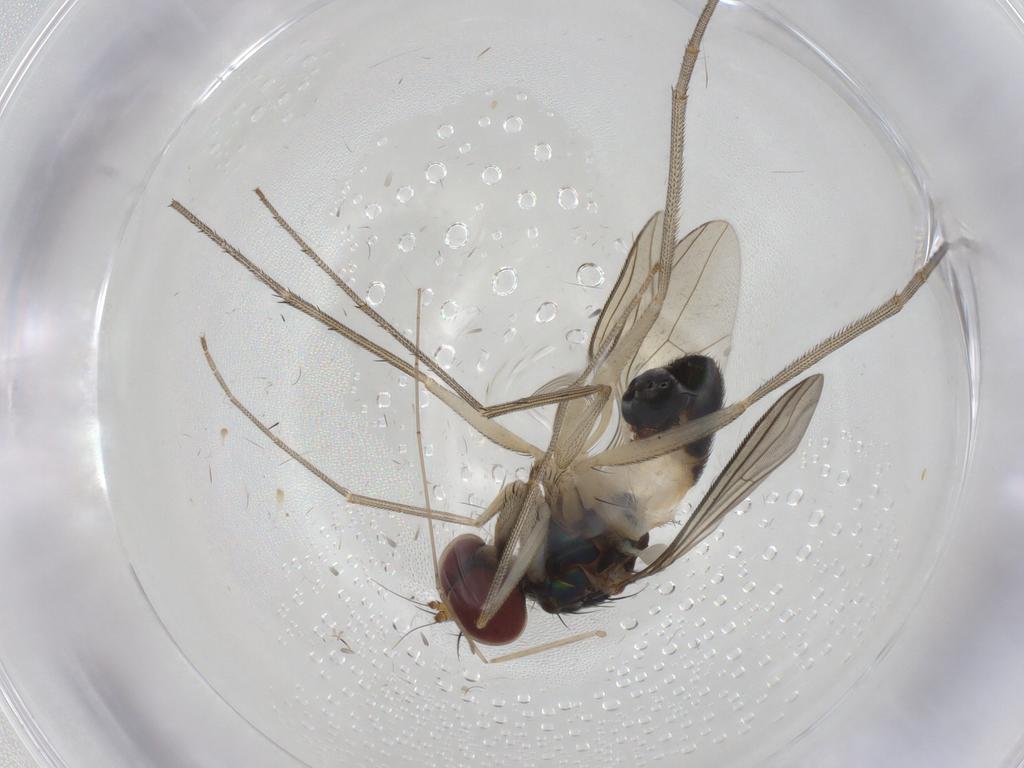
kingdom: Animalia
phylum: Arthropoda
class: Insecta
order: Diptera
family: Limoniidae
